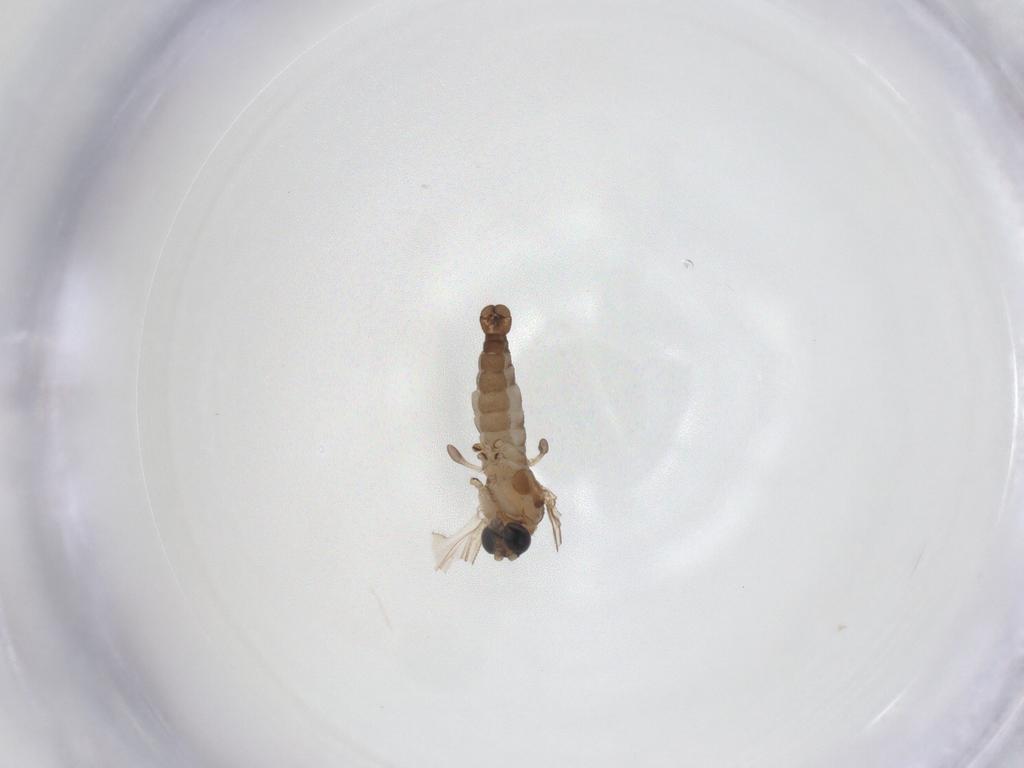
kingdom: Animalia
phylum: Arthropoda
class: Insecta
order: Diptera
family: Sciaridae
